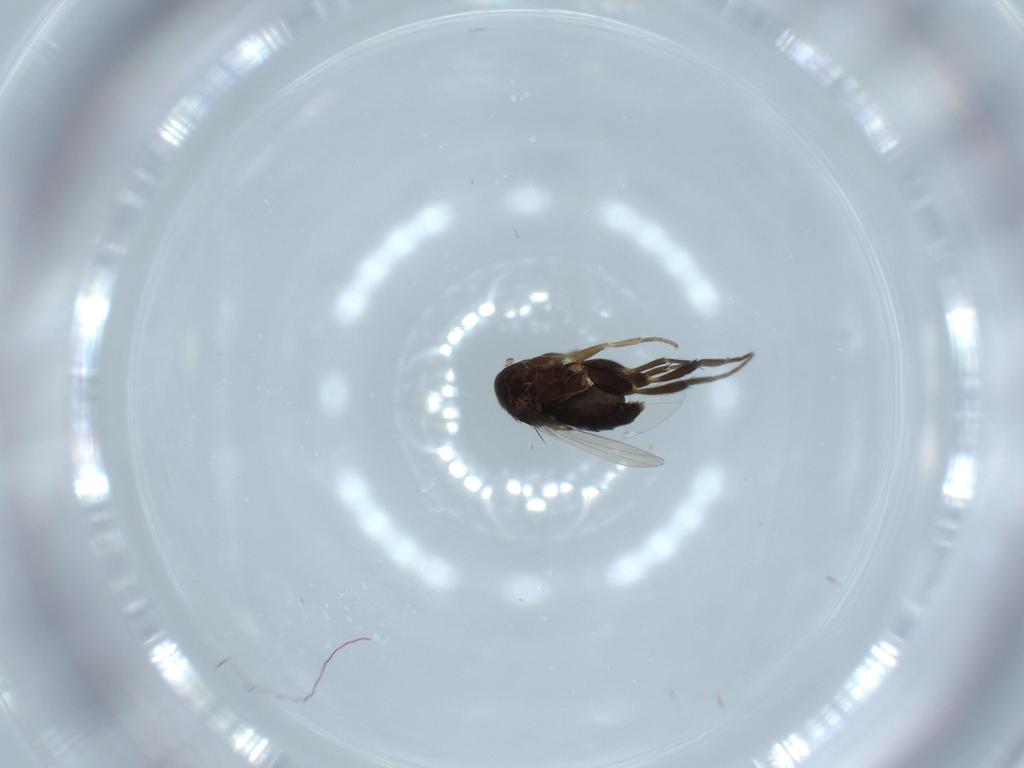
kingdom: Animalia
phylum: Arthropoda
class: Insecta
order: Diptera
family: Phoridae
